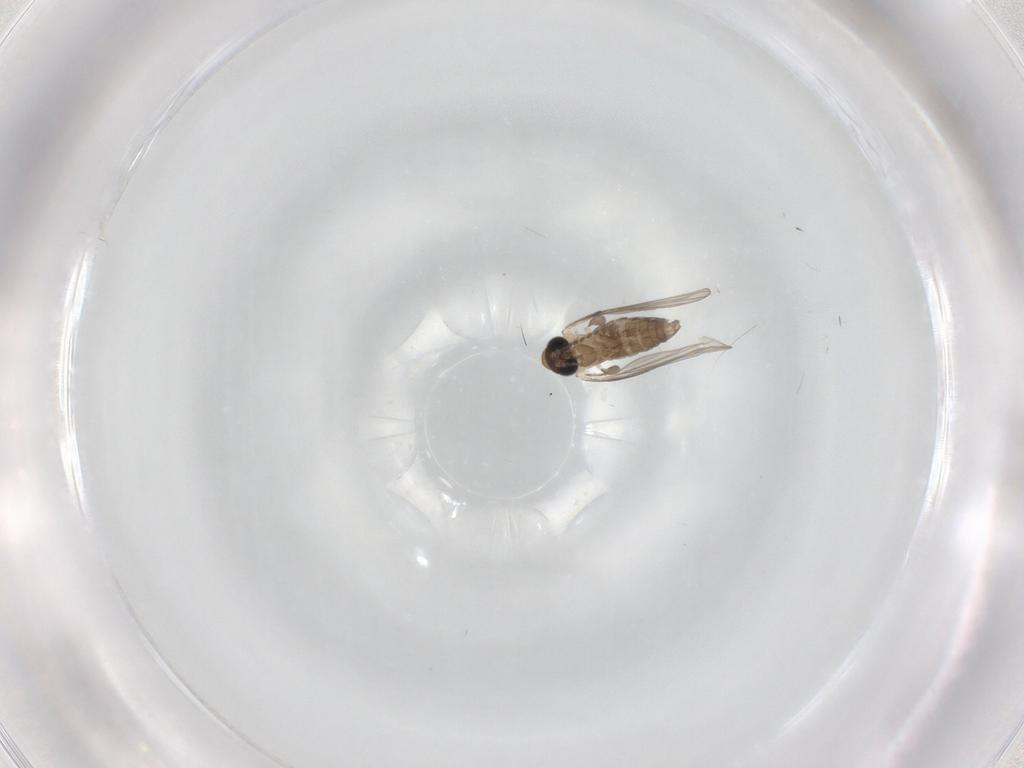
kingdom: Animalia
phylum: Arthropoda
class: Insecta
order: Diptera
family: Psychodidae
